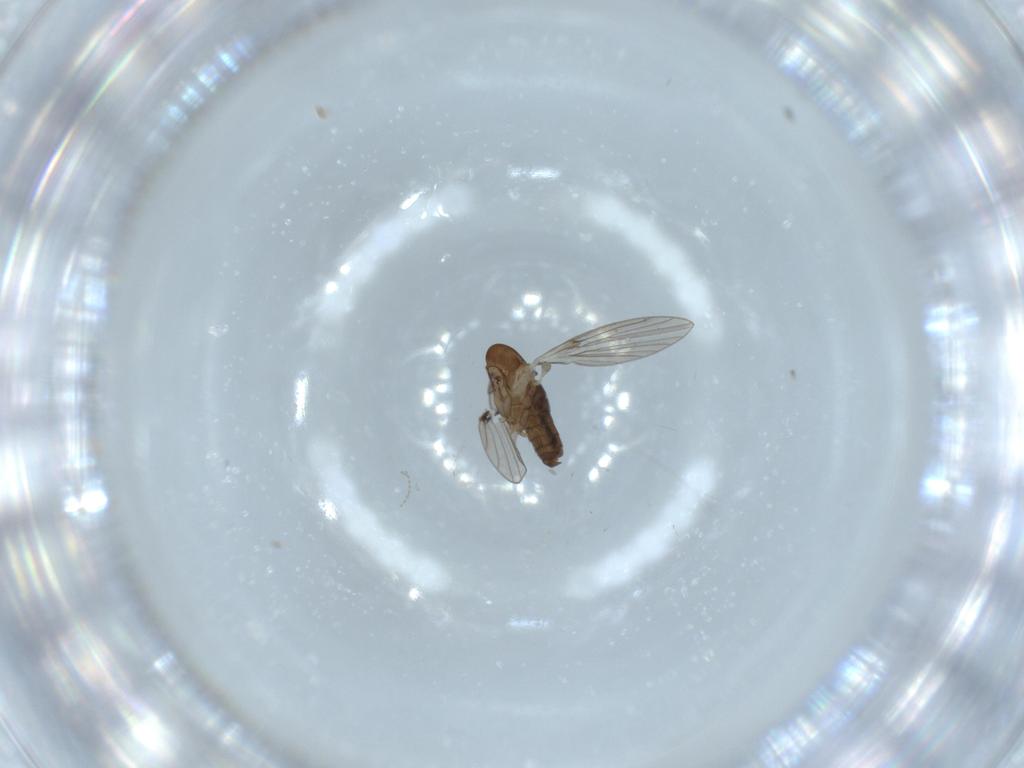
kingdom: Animalia
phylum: Arthropoda
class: Insecta
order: Diptera
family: Psychodidae
